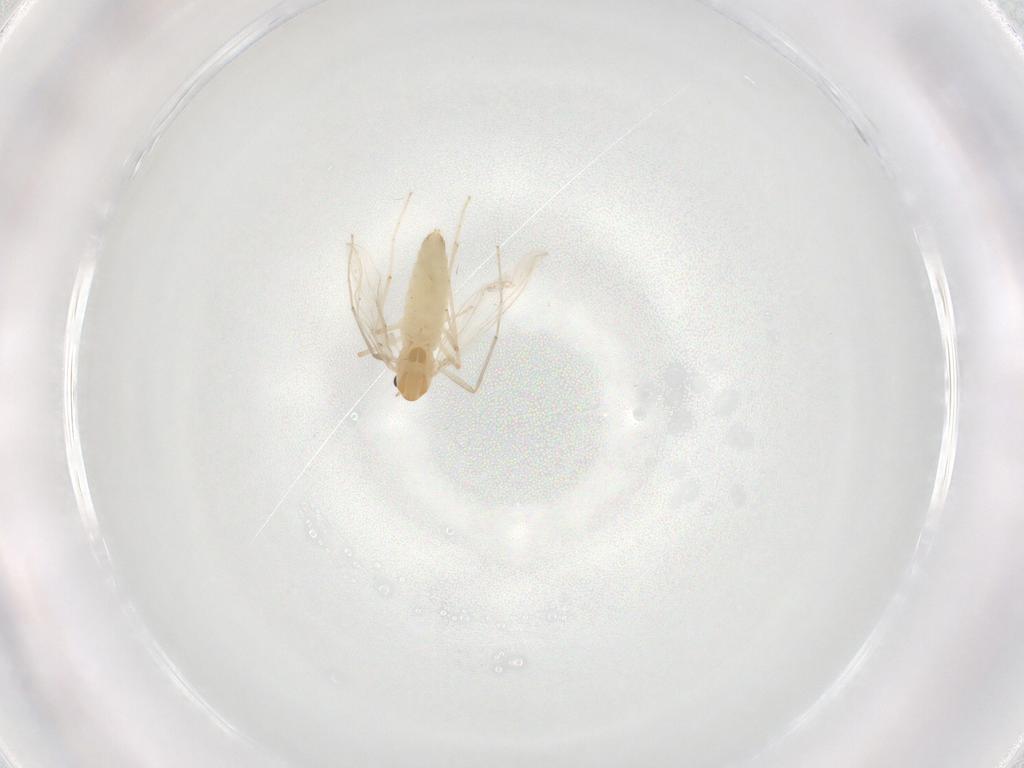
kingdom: Animalia
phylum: Arthropoda
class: Insecta
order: Diptera
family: Chironomidae
